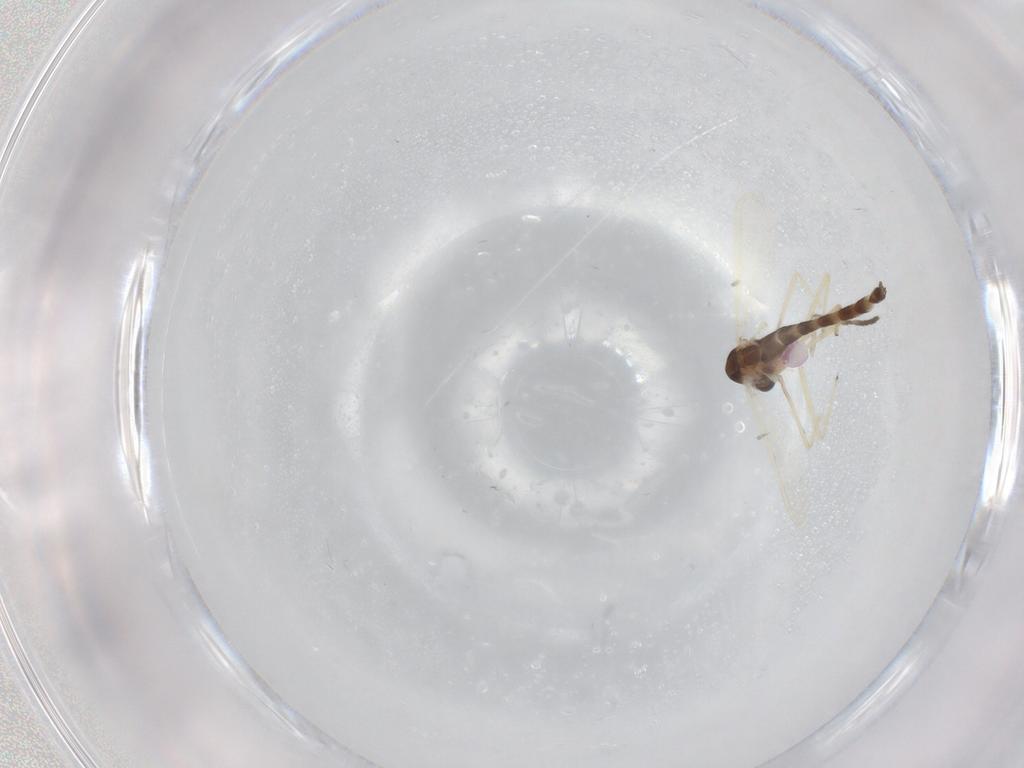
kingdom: Animalia
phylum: Arthropoda
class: Insecta
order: Diptera
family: Chironomidae
